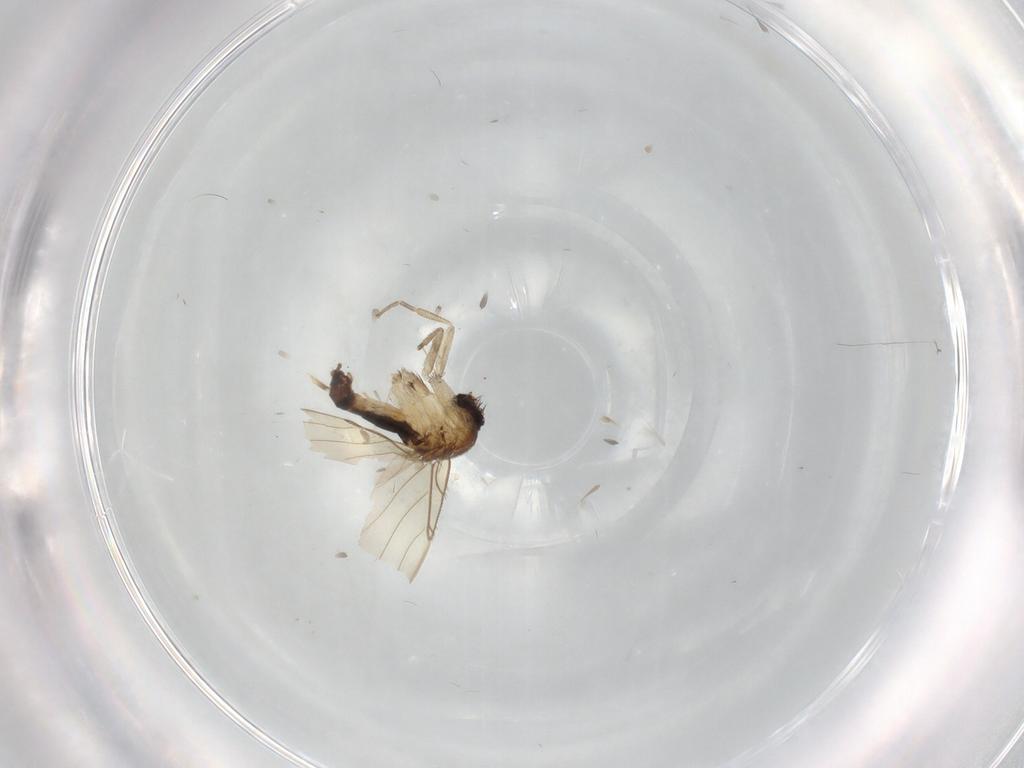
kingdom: Animalia
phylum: Arthropoda
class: Insecta
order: Diptera
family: Phoridae
